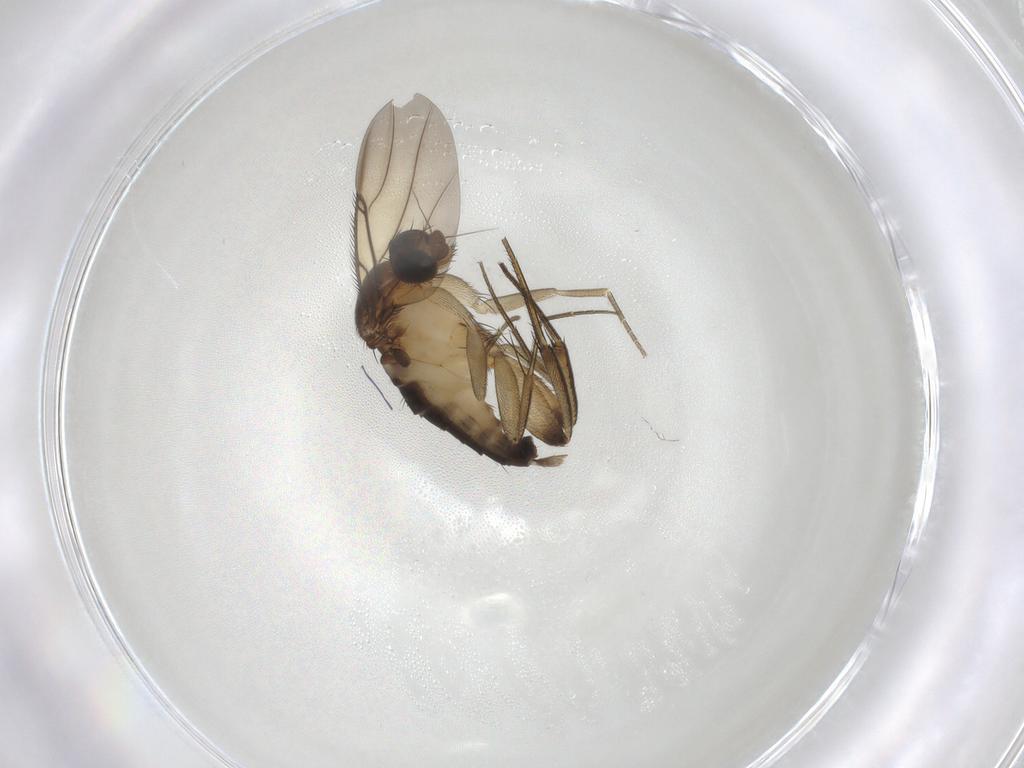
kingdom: Animalia
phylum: Arthropoda
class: Insecta
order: Diptera
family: Phoridae
